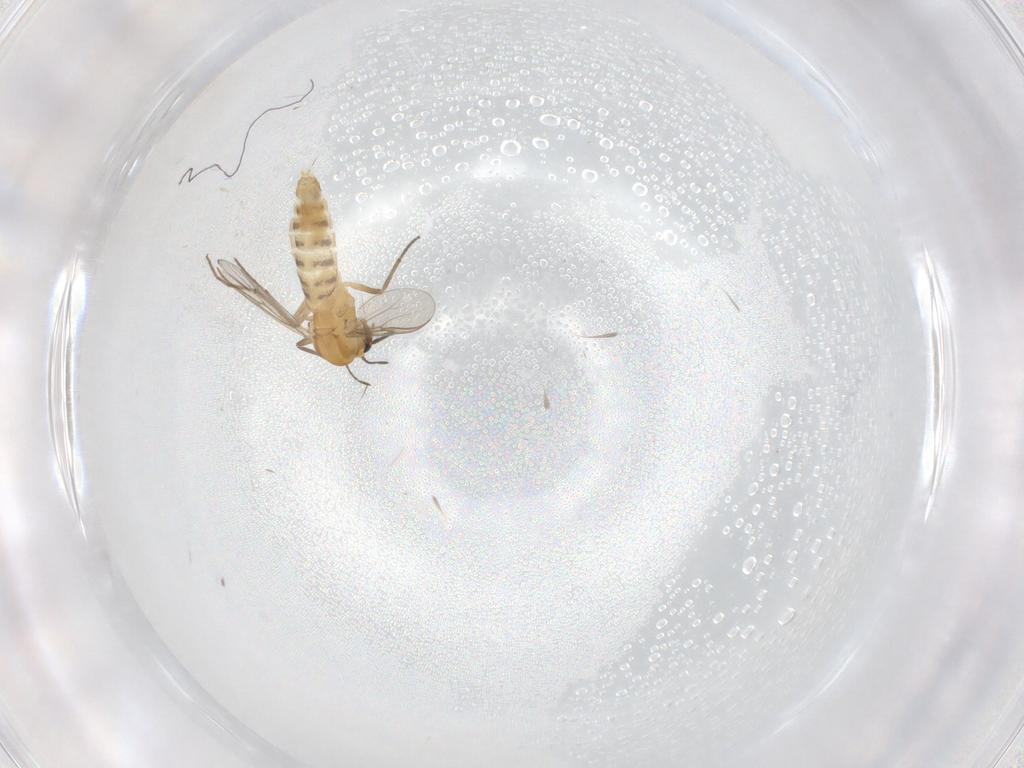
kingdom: Animalia
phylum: Arthropoda
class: Insecta
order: Diptera
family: Chironomidae
